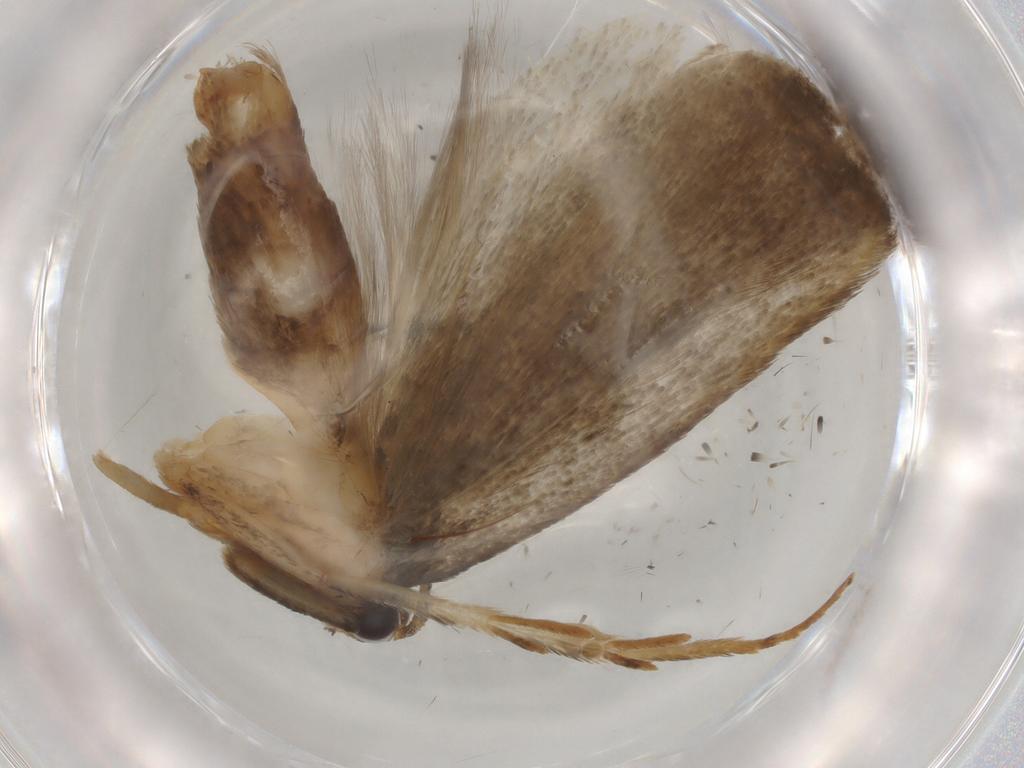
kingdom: Animalia
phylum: Arthropoda
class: Insecta
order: Lepidoptera
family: Gelechiidae
